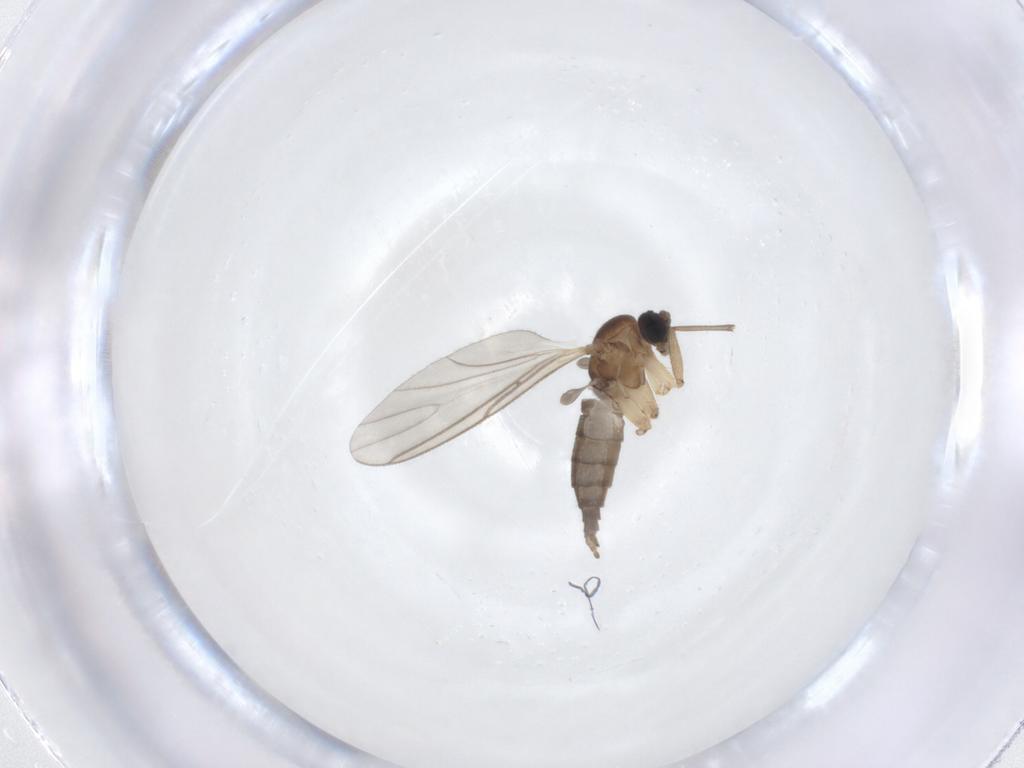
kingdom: Animalia
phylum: Arthropoda
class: Insecta
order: Diptera
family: Sciaridae
